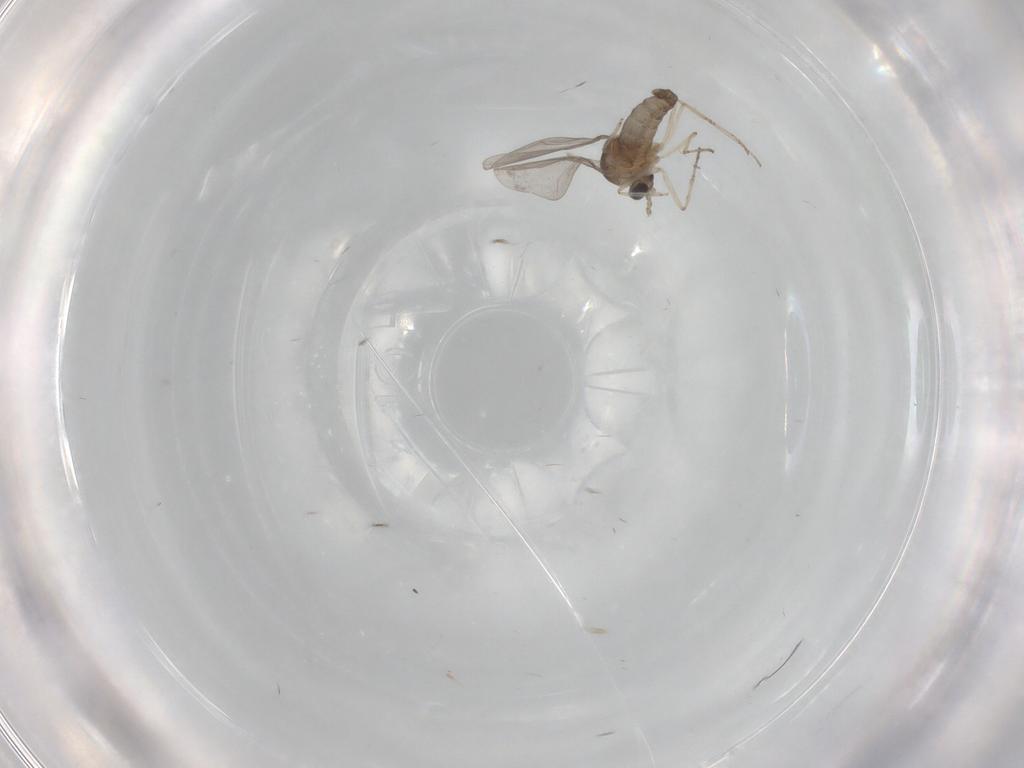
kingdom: Animalia
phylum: Arthropoda
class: Insecta
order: Diptera
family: Cecidomyiidae
